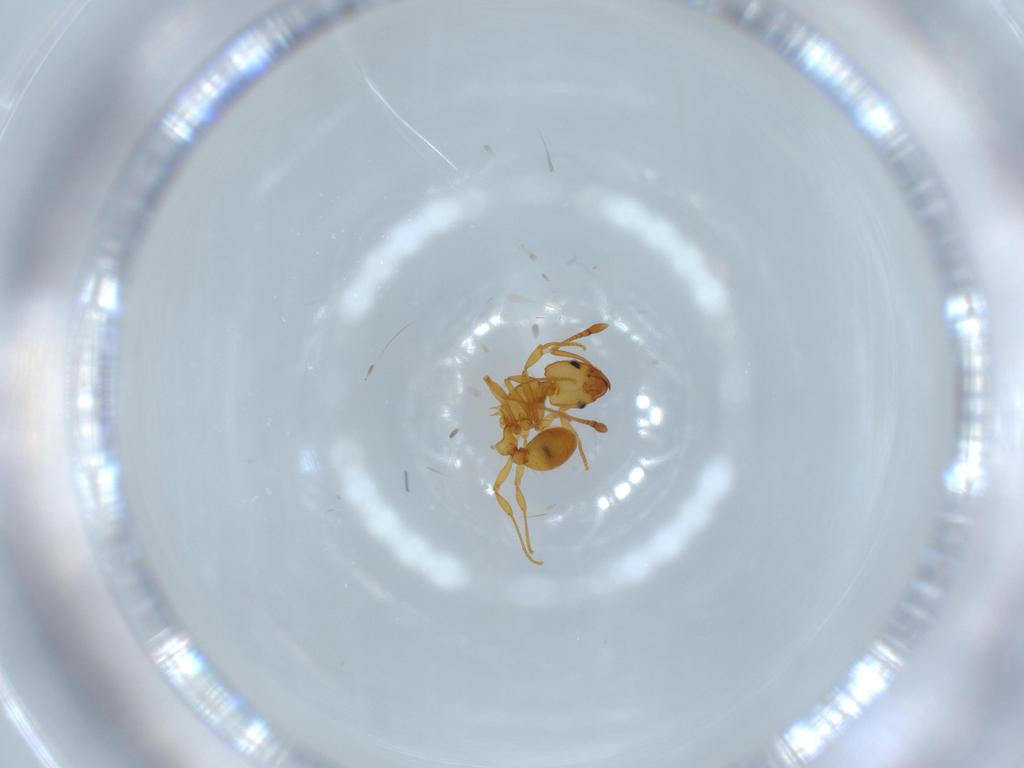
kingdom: Animalia
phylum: Arthropoda
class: Insecta
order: Hymenoptera
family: Formicidae
